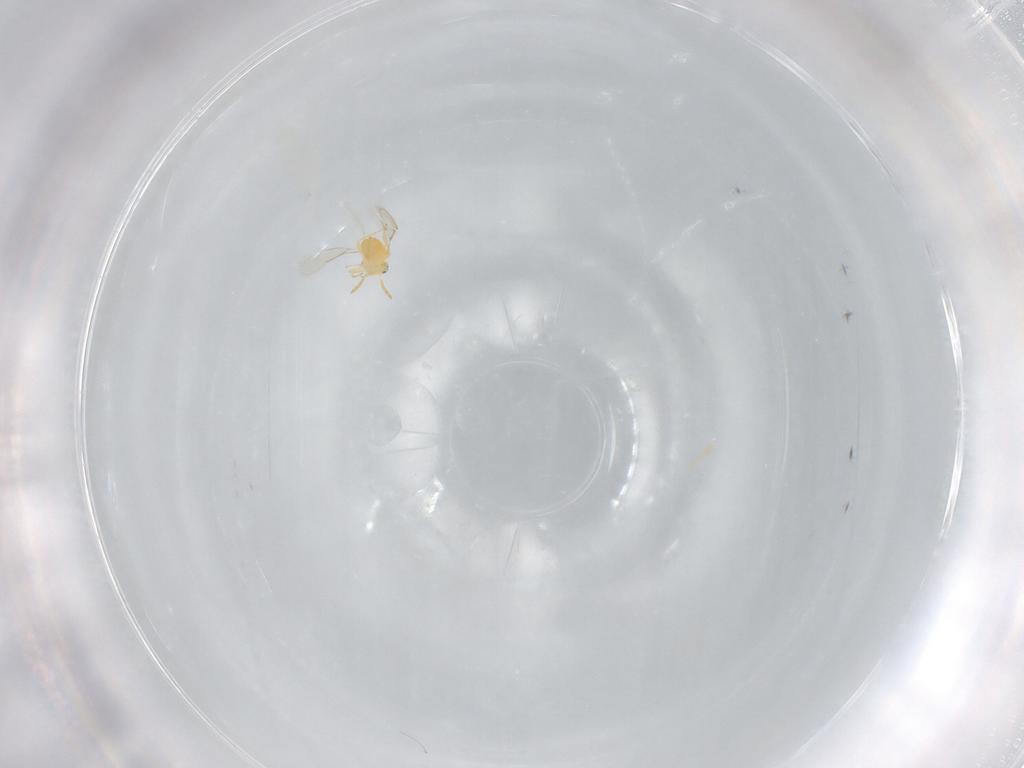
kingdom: Animalia
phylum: Arthropoda
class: Insecta
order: Hymenoptera
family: Aphelinidae
